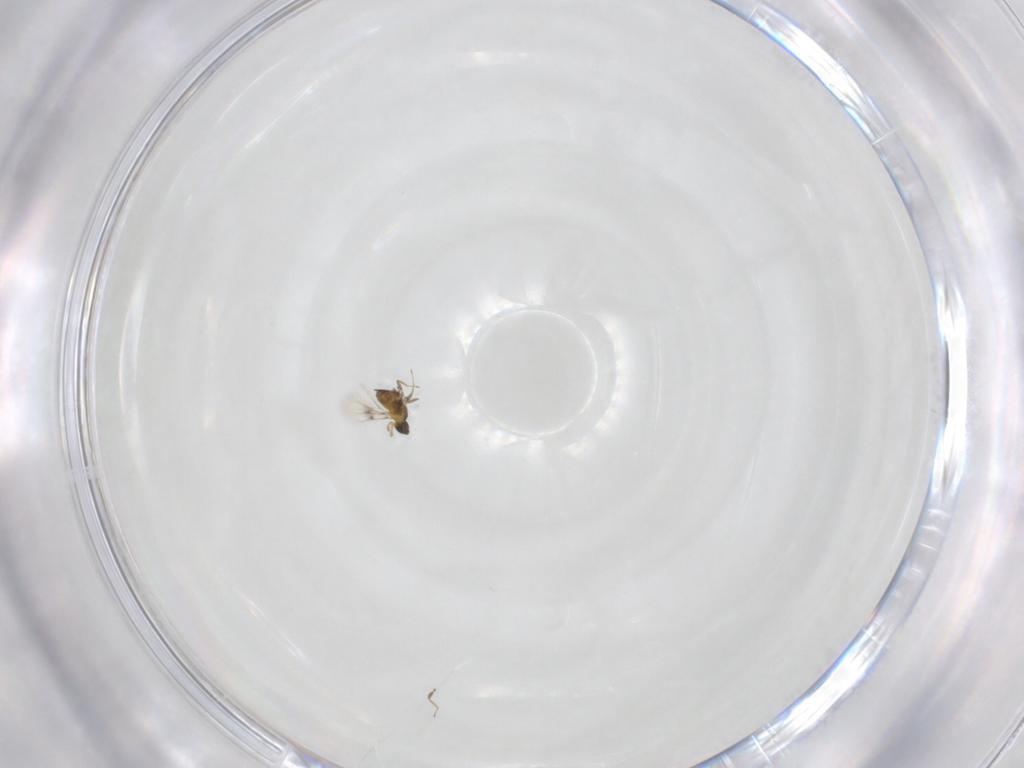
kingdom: Animalia
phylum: Arthropoda
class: Insecta
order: Hymenoptera
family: Trichogrammatidae
